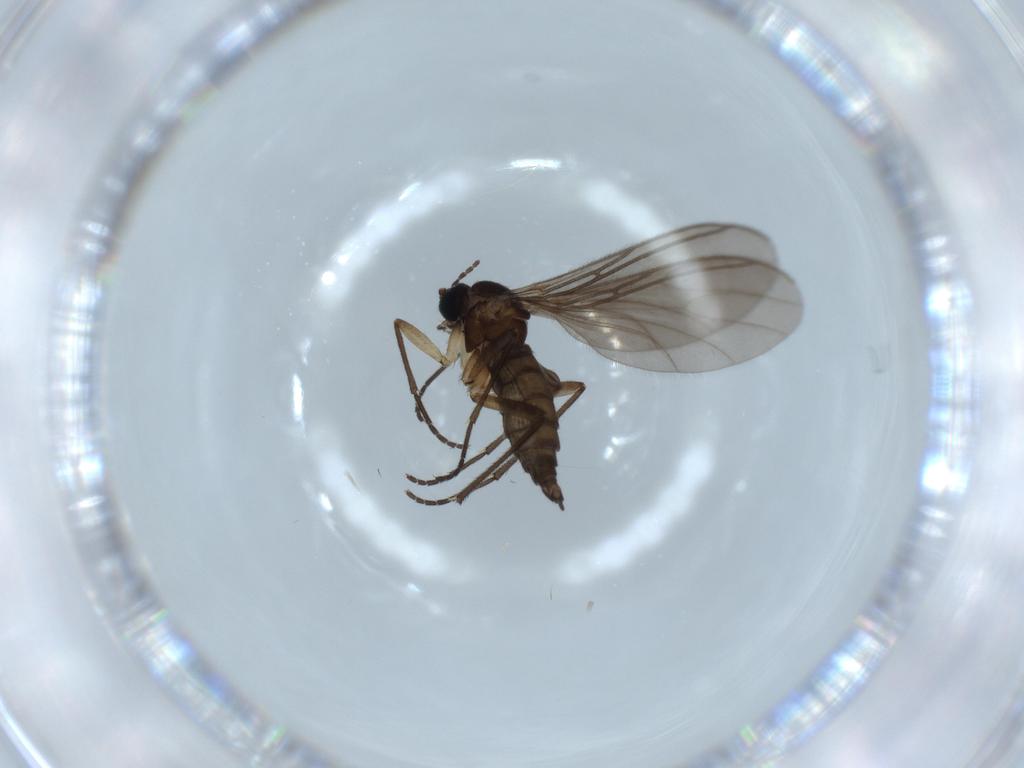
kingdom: Animalia
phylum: Arthropoda
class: Insecta
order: Diptera
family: Sciaridae
